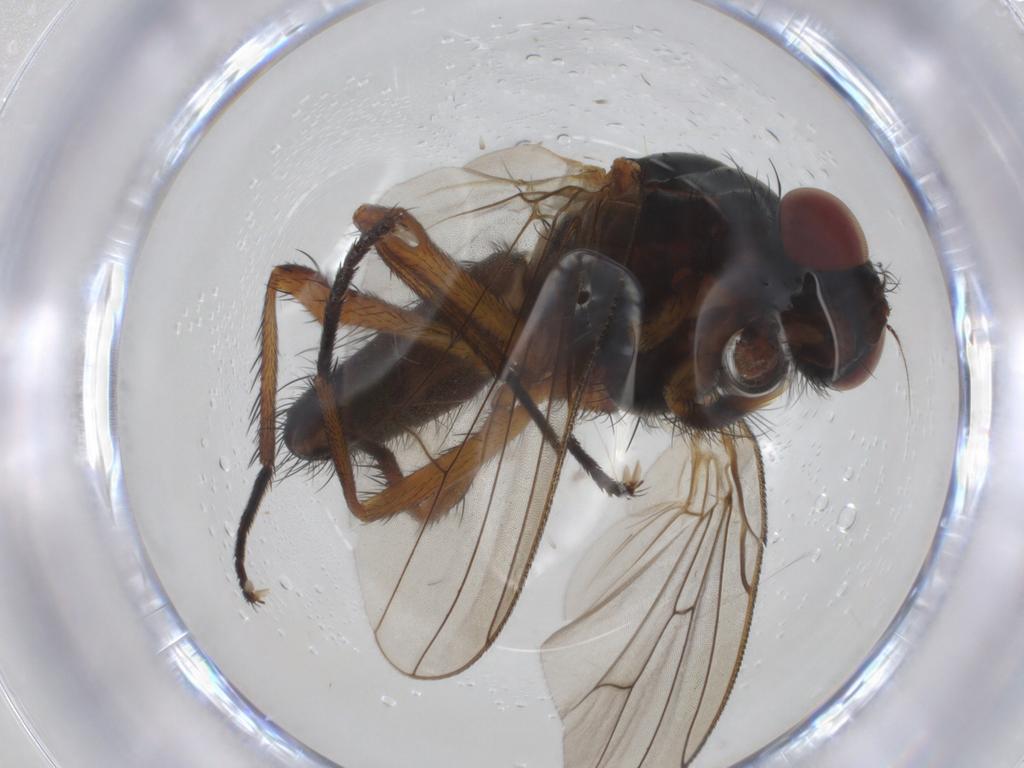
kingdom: Animalia
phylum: Arthropoda
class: Insecta
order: Diptera
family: Anthomyiidae
